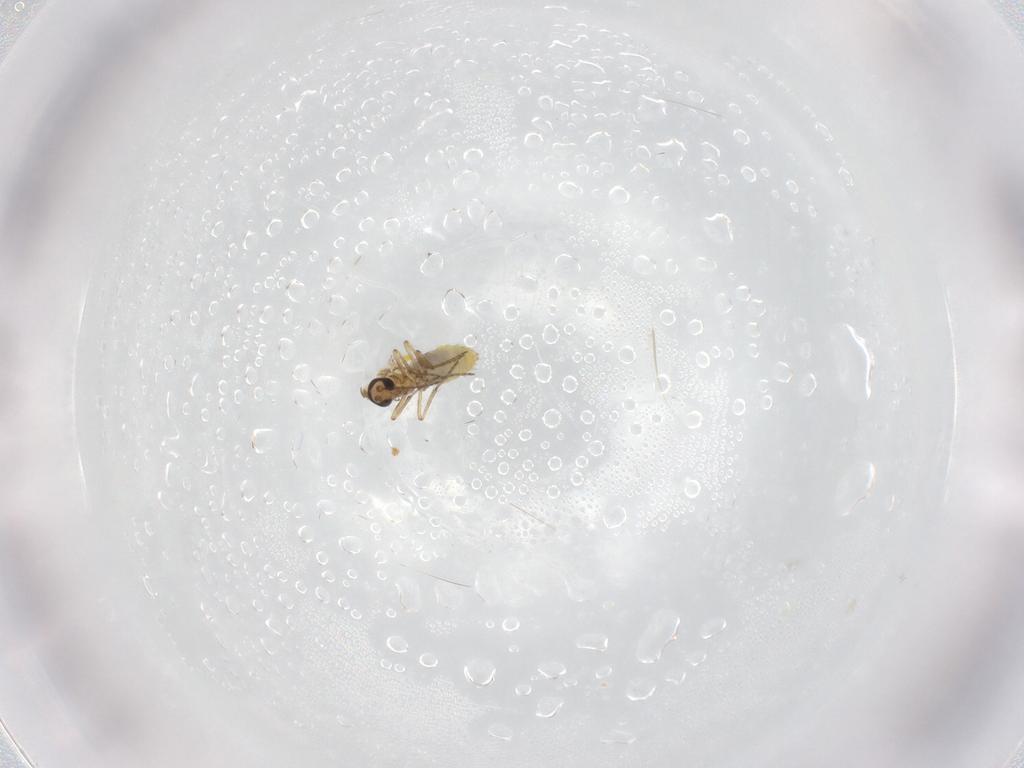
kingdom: Animalia
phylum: Arthropoda
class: Insecta
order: Diptera
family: Ceratopogonidae
